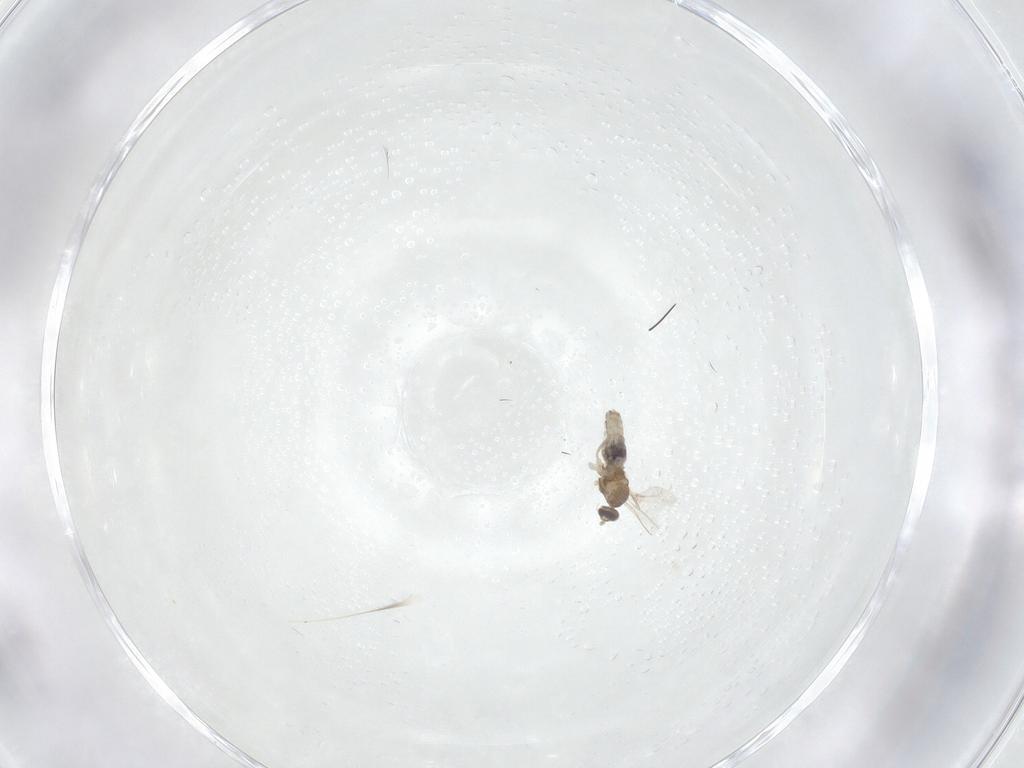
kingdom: Animalia
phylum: Arthropoda
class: Insecta
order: Diptera
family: Cecidomyiidae
